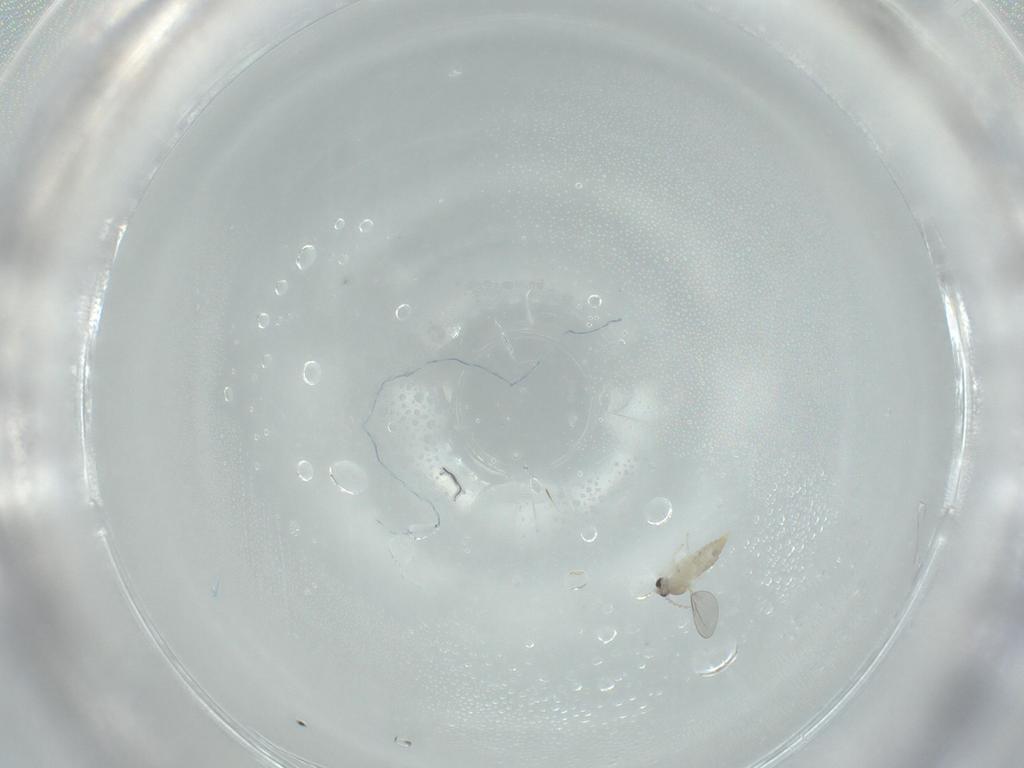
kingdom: Animalia
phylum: Arthropoda
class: Insecta
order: Diptera
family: Cecidomyiidae
